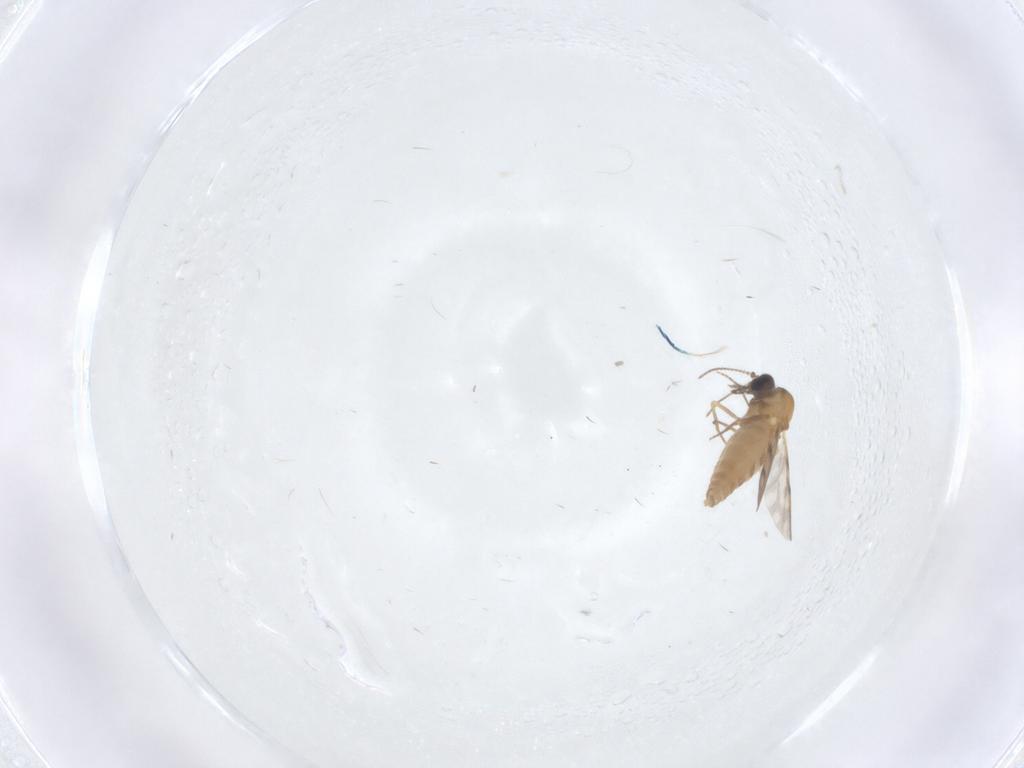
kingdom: Animalia
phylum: Arthropoda
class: Insecta
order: Diptera
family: Ceratopogonidae
